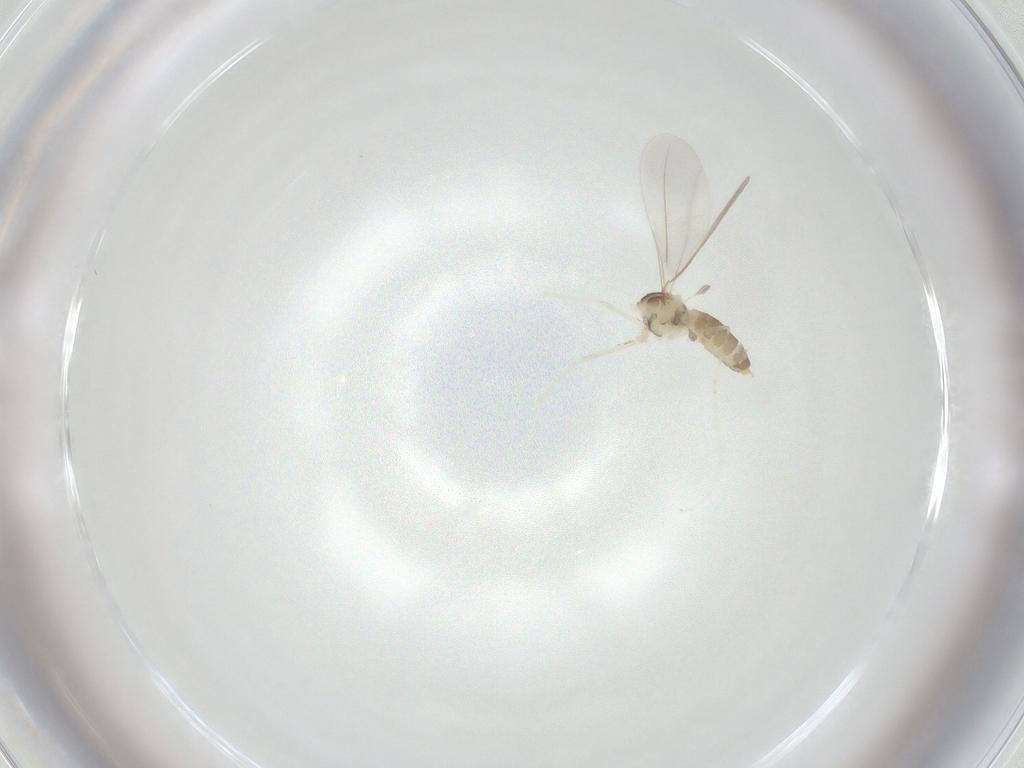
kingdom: Animalia
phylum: Arthropoda
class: Insecta
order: Diptera
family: Cecidomyiidae
